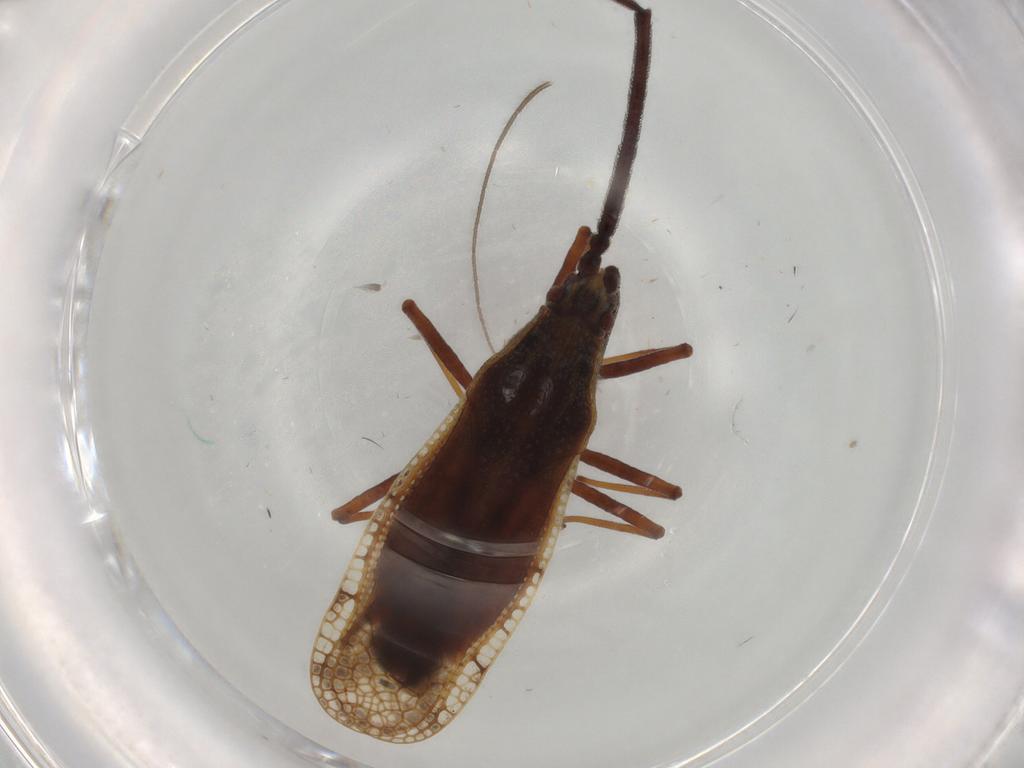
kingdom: Animalia
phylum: Arthropoda
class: Insecta
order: Hemiptera
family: Tingidae
